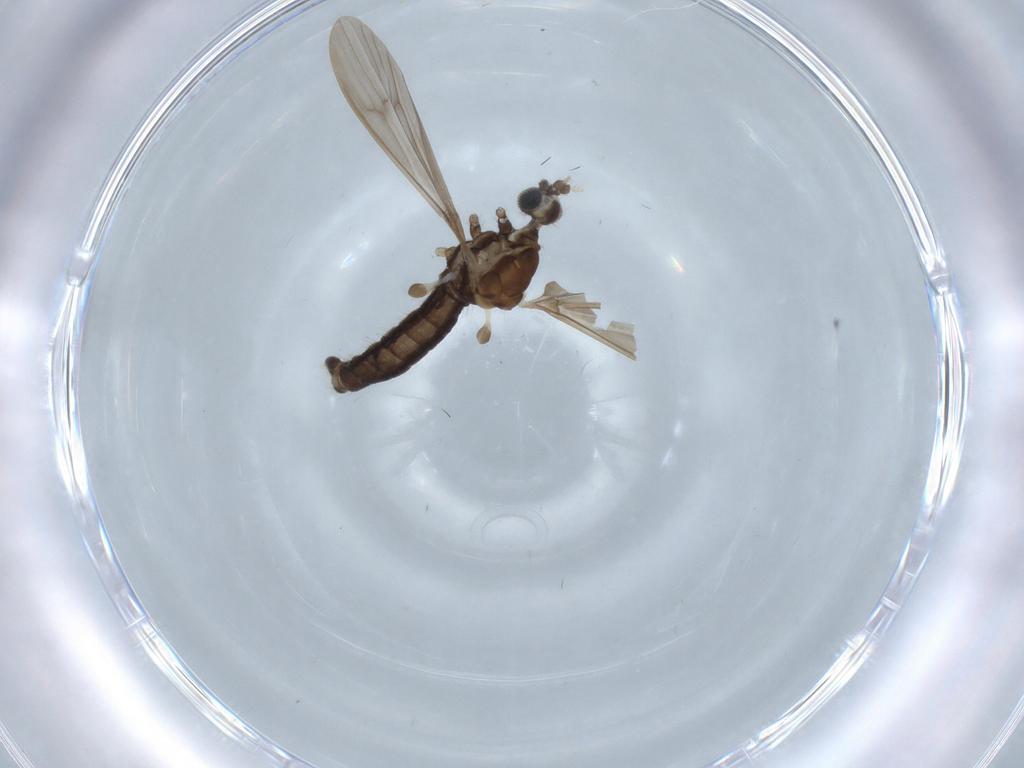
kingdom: Animalia
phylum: Arthropoda
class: Insecta
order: Diptera
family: Limoniidae
